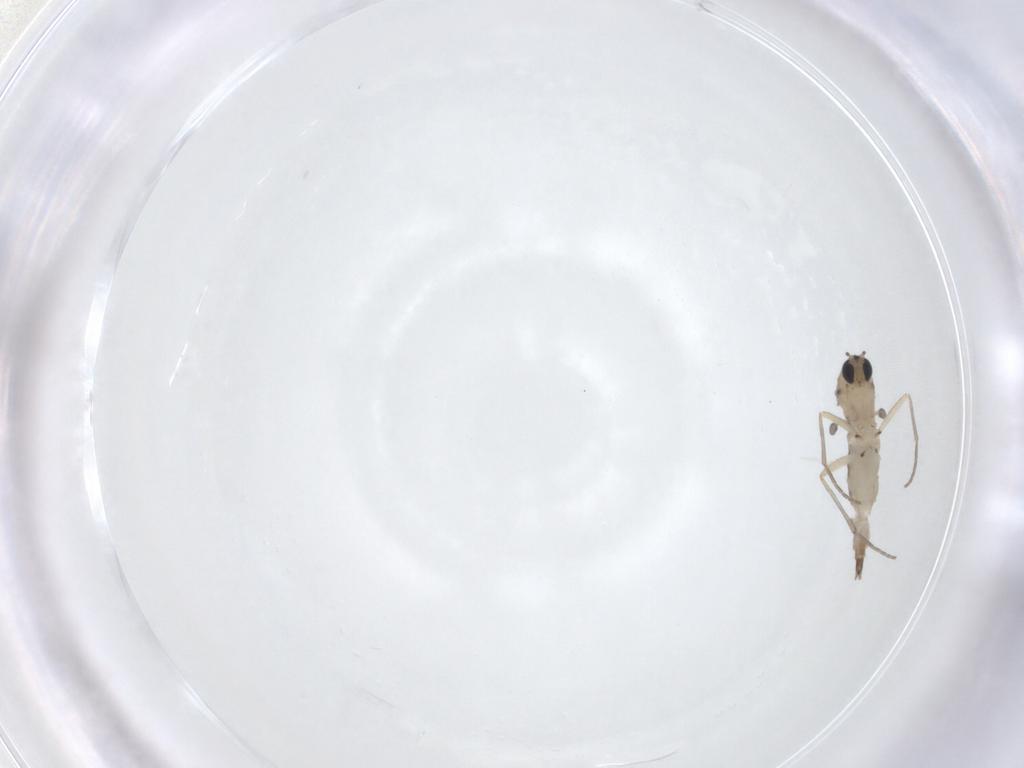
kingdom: Animalia
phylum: Arthropoda
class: Insecta
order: Diptera
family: Sciaridae
